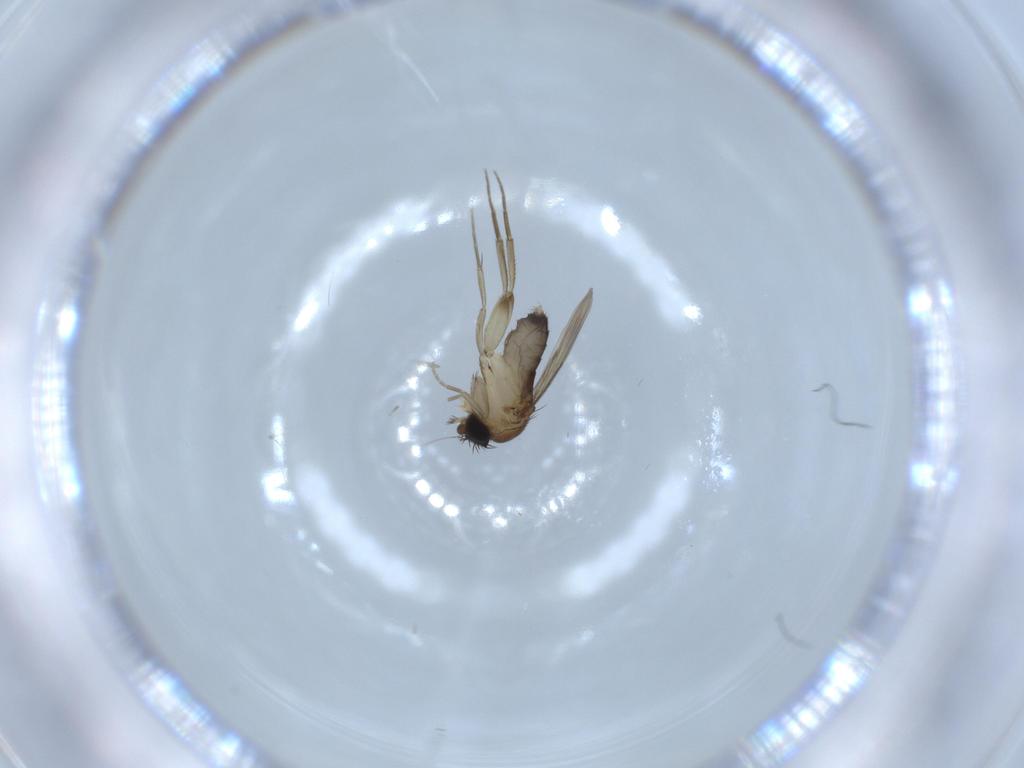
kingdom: Animalia
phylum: Arthropoda
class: Insecta
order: Diptera
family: Phoridae
